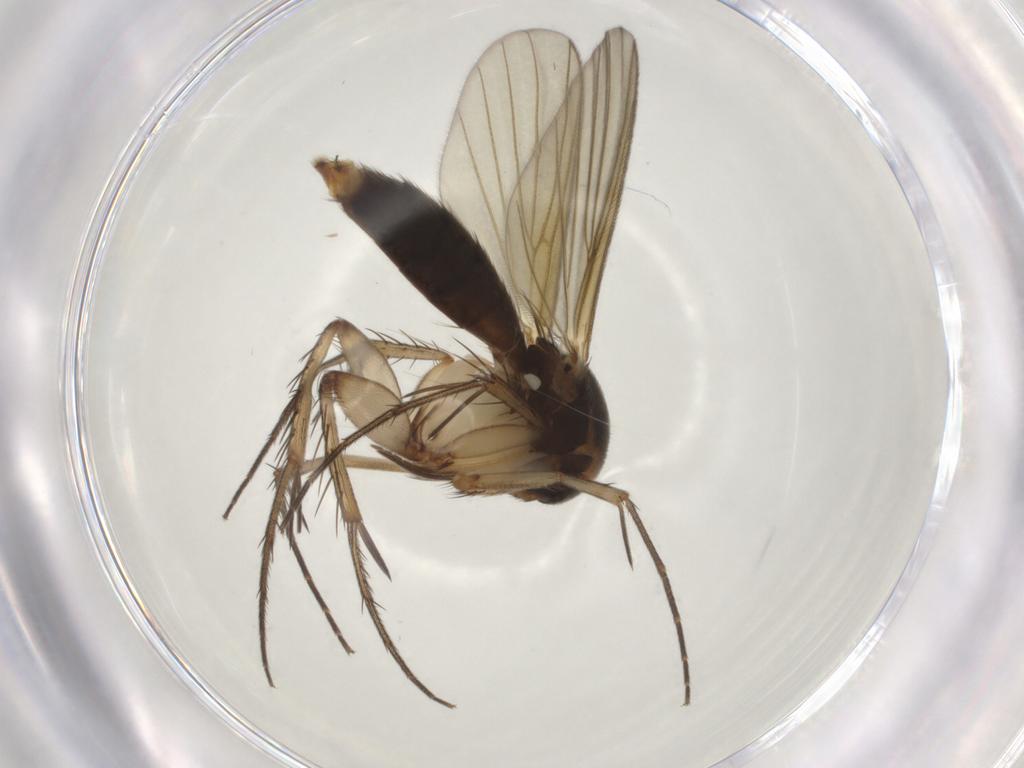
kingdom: Animalia
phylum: Arthropoda
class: Insecta
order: Diptera
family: Mycetophilidae
